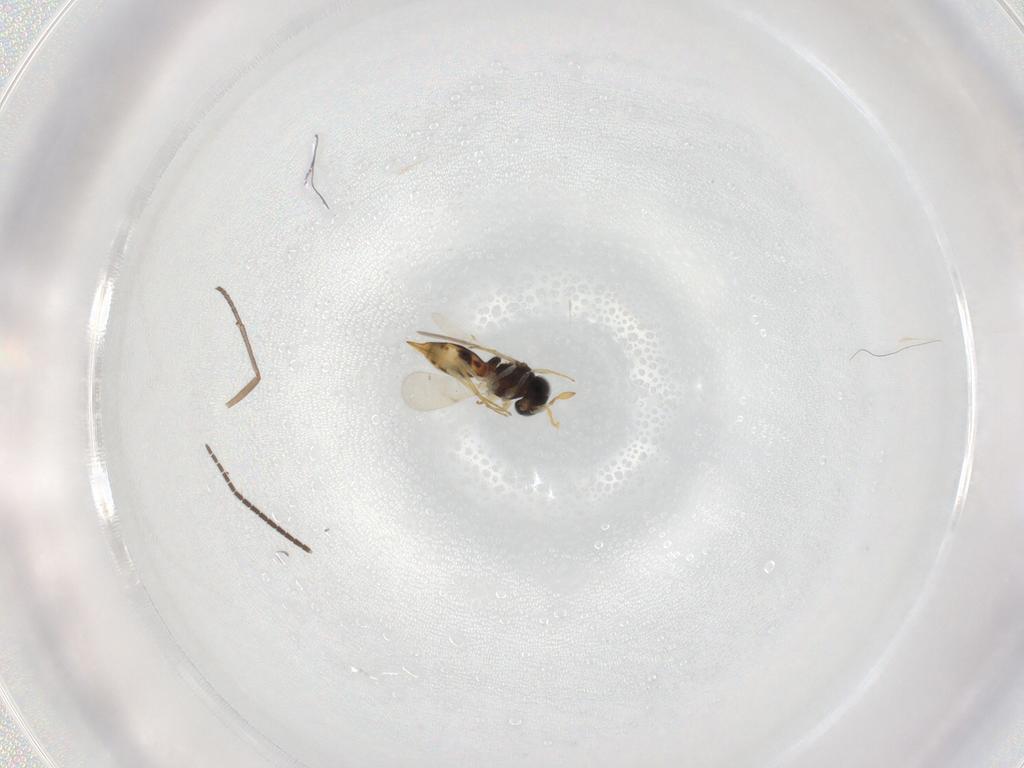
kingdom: Animalia
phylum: Arthropoda
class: Insecta
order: Hymenoptera
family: Scelionidae
